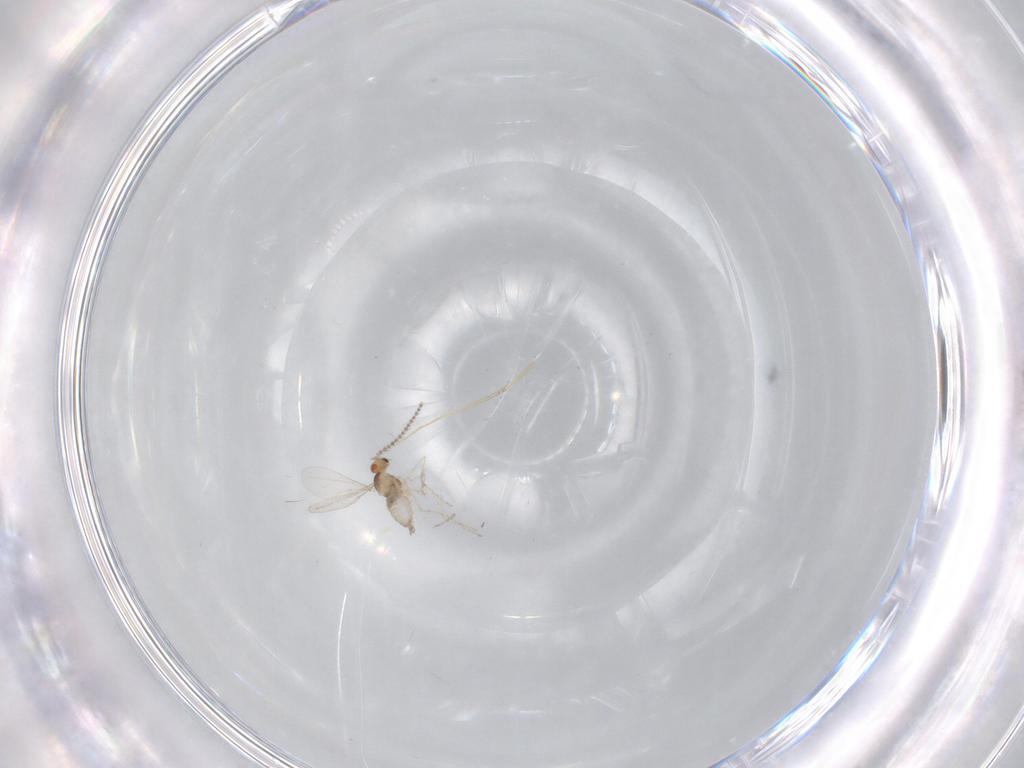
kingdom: Animalia
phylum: Arthropoda
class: Insecta
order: Diptera
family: Cecidomyiidae
